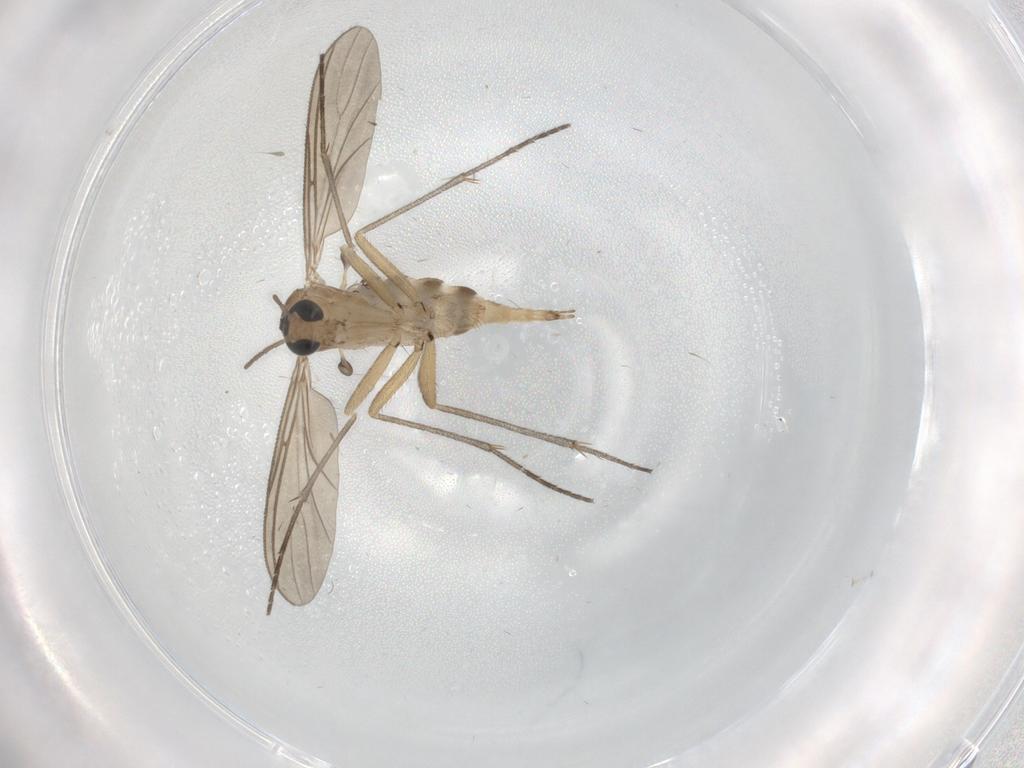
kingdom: Animalia
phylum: Arthropoda
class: Insecta
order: Diptera
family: Sciaridae
